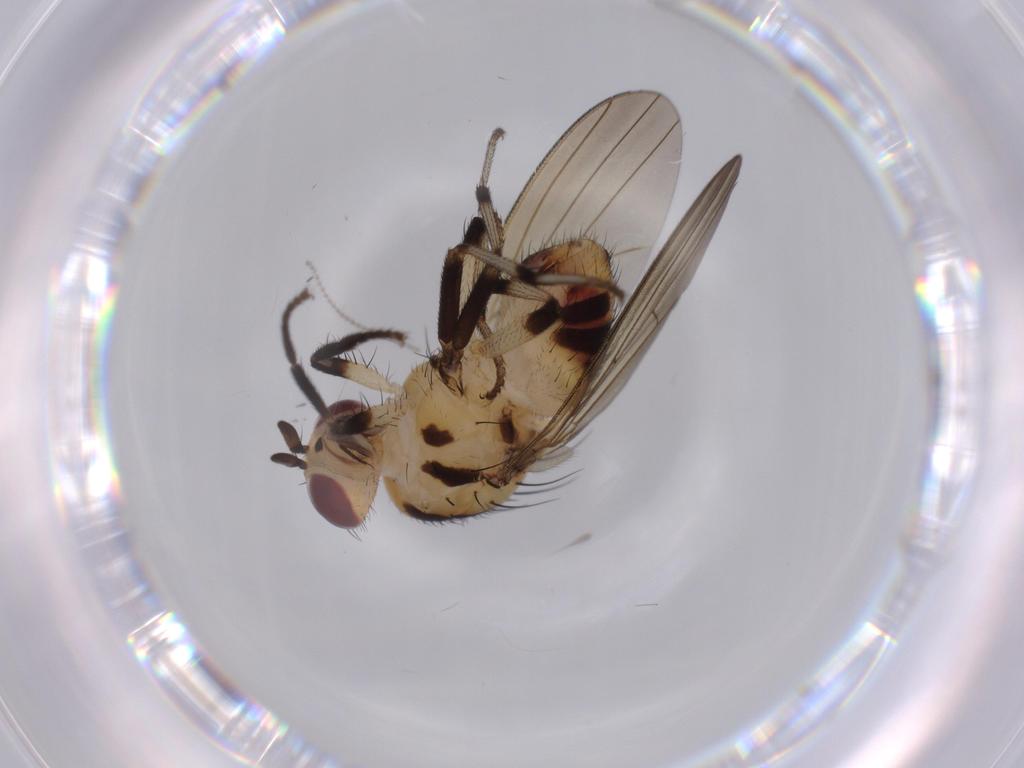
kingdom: Animalia
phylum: Arthropoda
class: Insecta
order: Diptera
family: Lauxaniidae
